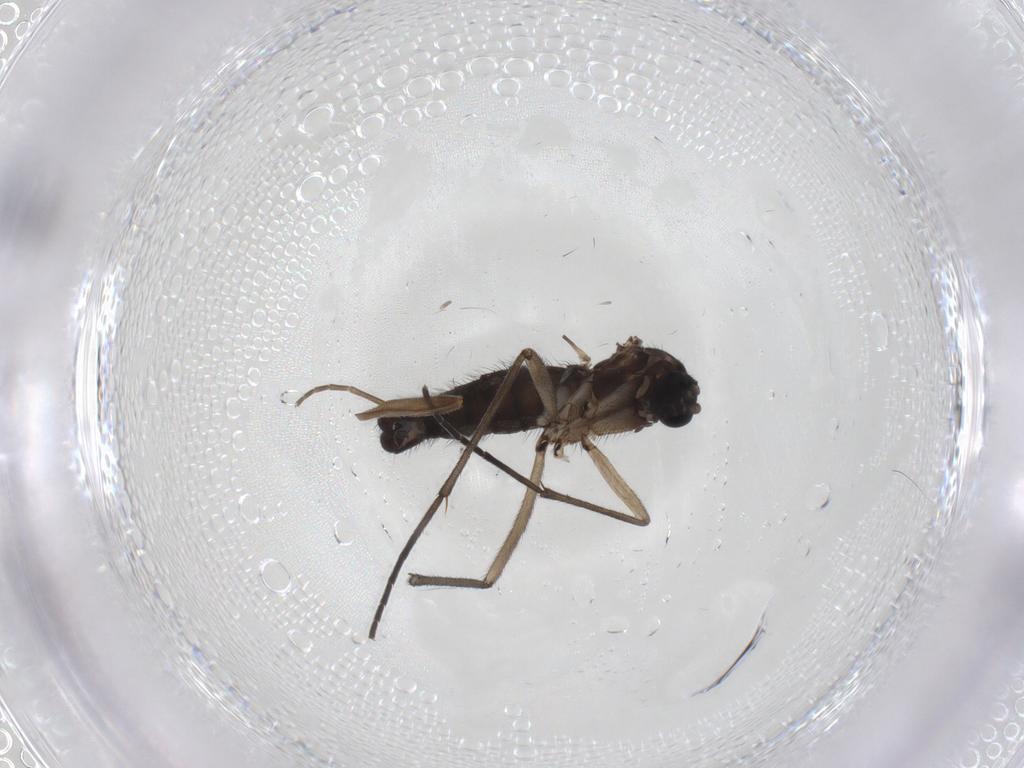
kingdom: Animalia
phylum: Arthropoda
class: Insecta
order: Diptera
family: Sciaridae
